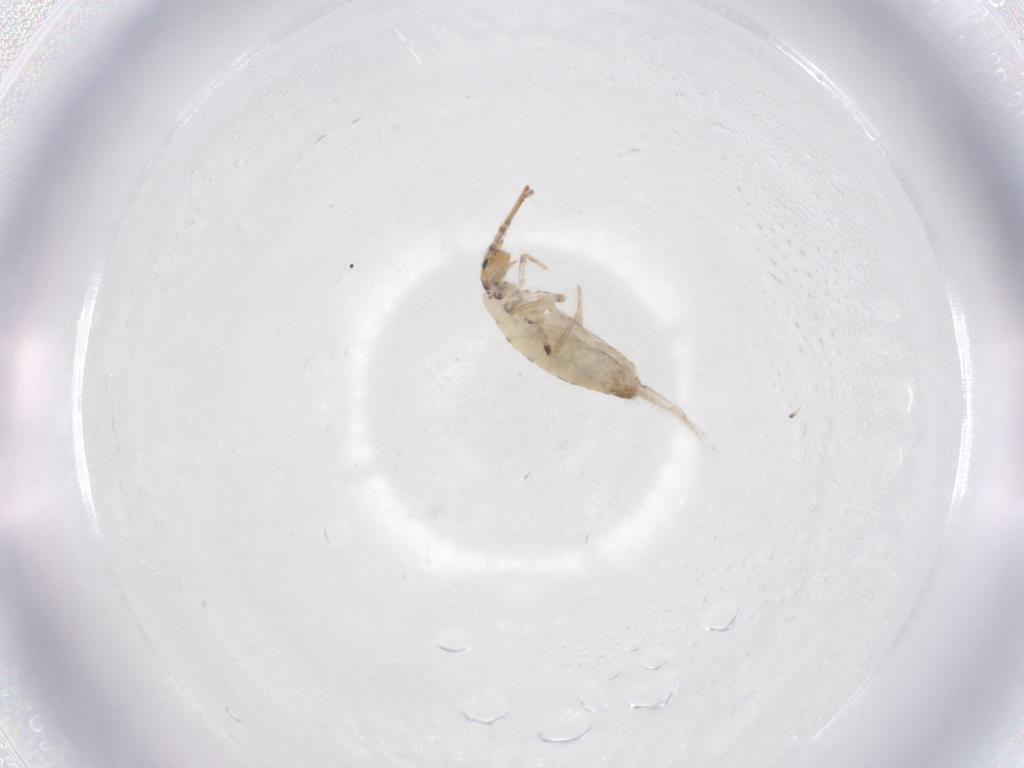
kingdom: Animalia
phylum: Arthropoda
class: Collembola
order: Entomobryomorpha
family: Entomobryidae
